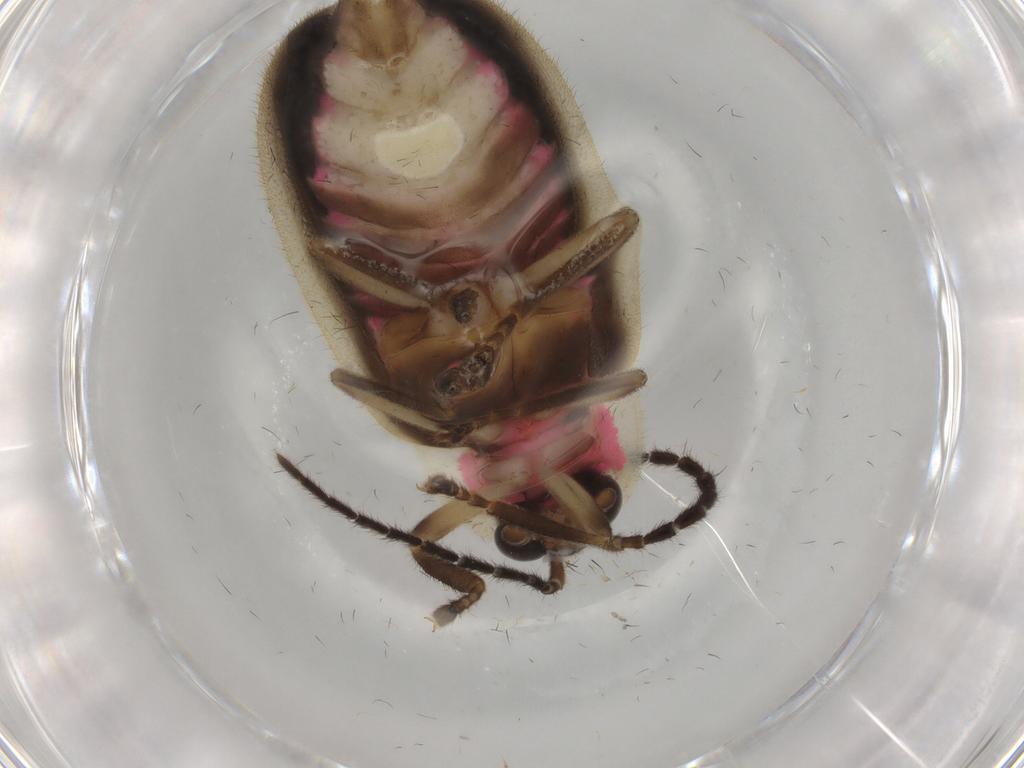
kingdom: Animalia
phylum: Arthropoda
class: Insecta
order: Coleoptera
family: Lampyridae
